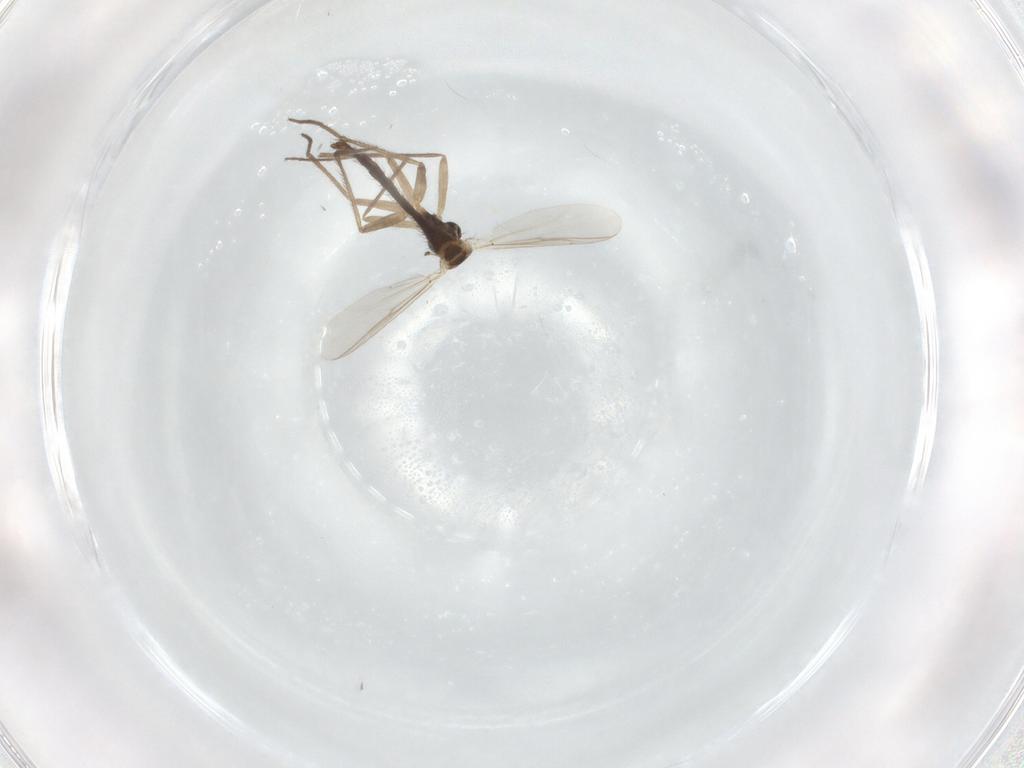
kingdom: Animalia
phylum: Arthropoda
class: Insecta
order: Diptera
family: Chironomidae
